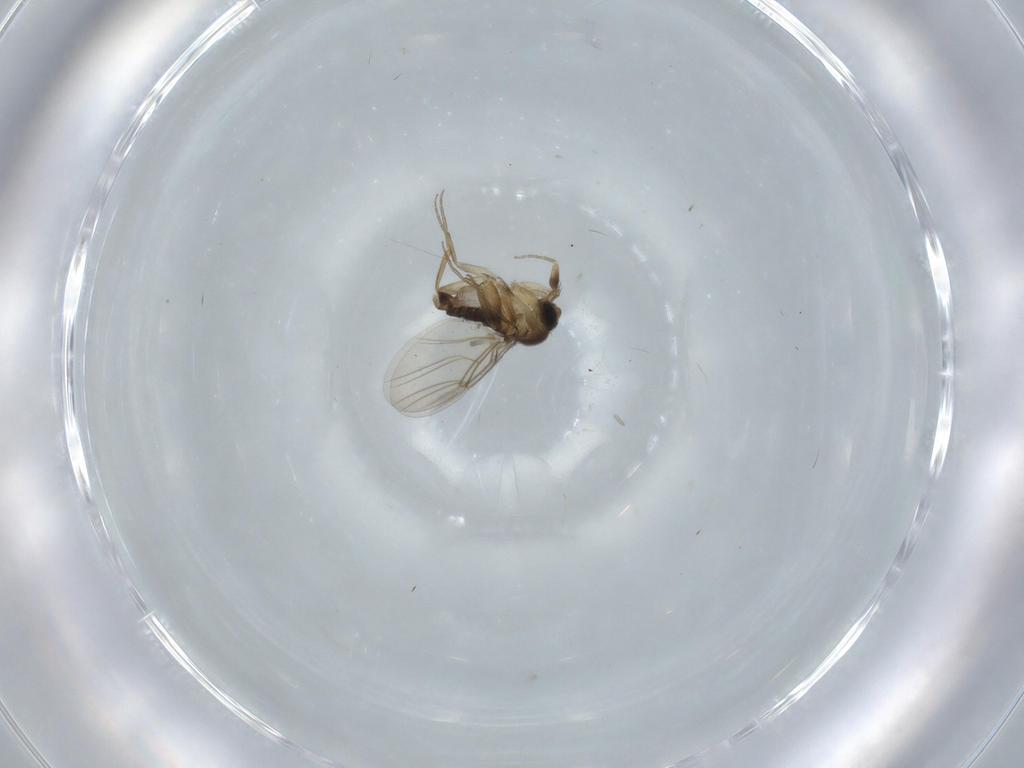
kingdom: Animalia
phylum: Arthropoda
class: Insecta
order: Diptera
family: Phoridae
